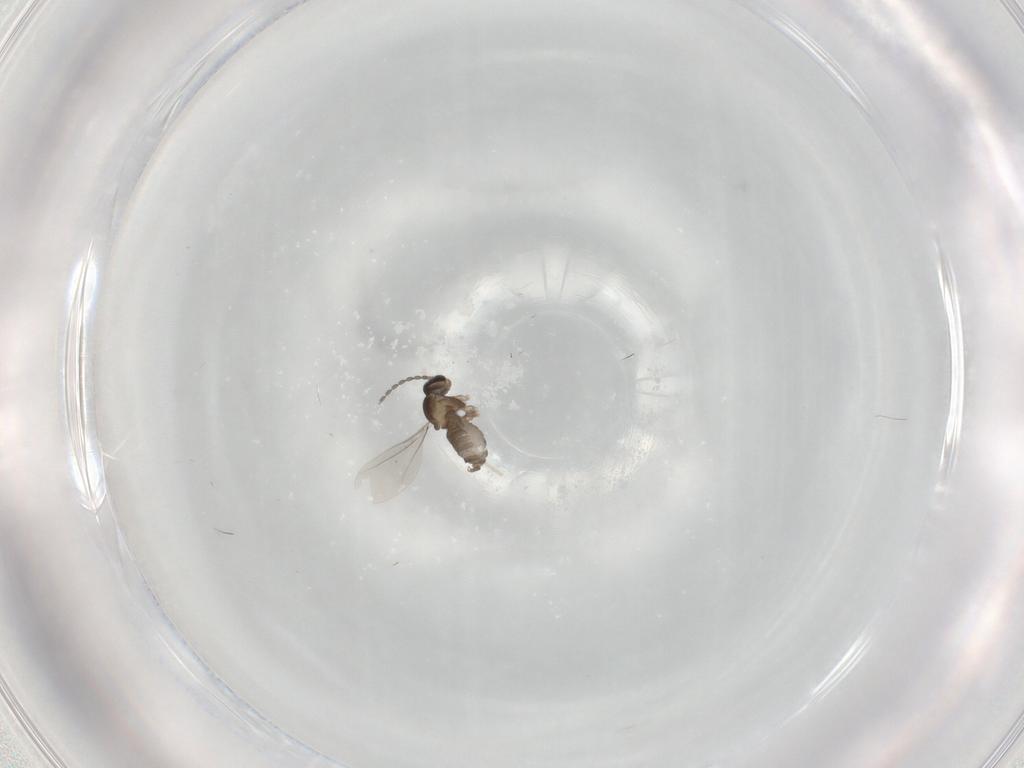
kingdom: Animalia
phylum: Arthropoda
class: Insecta
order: Diptera
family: Cecidomyiidae
